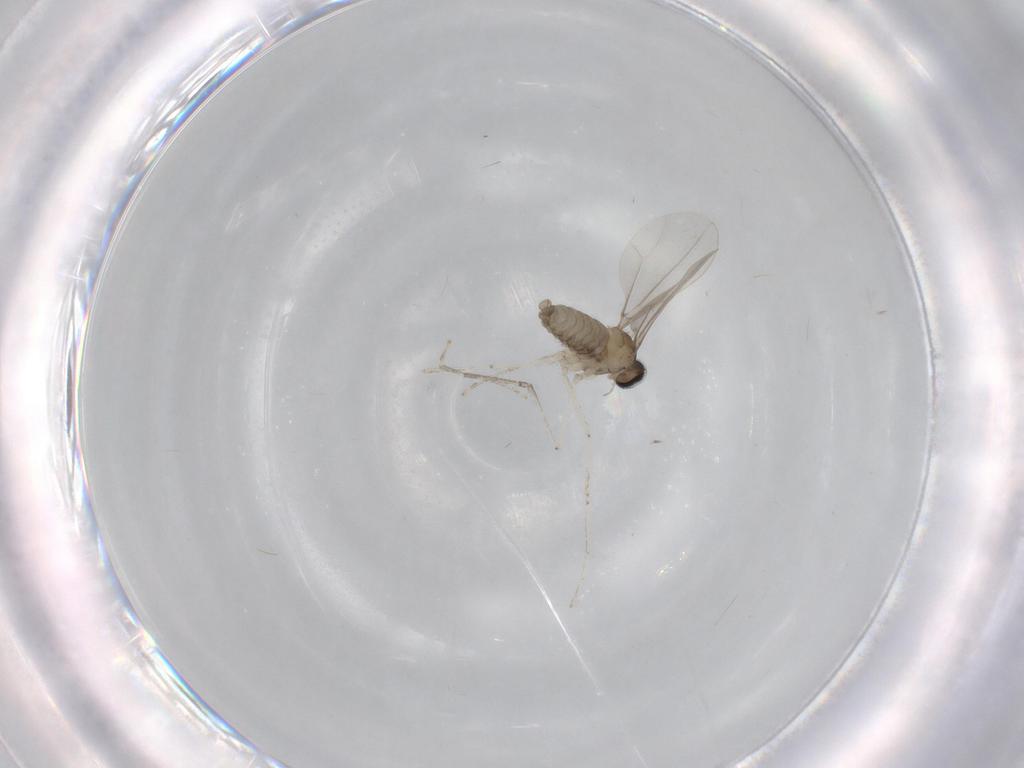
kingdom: Animalia
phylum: Arthropoda
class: Insecta
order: Diptera
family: Cecidomyiidae
